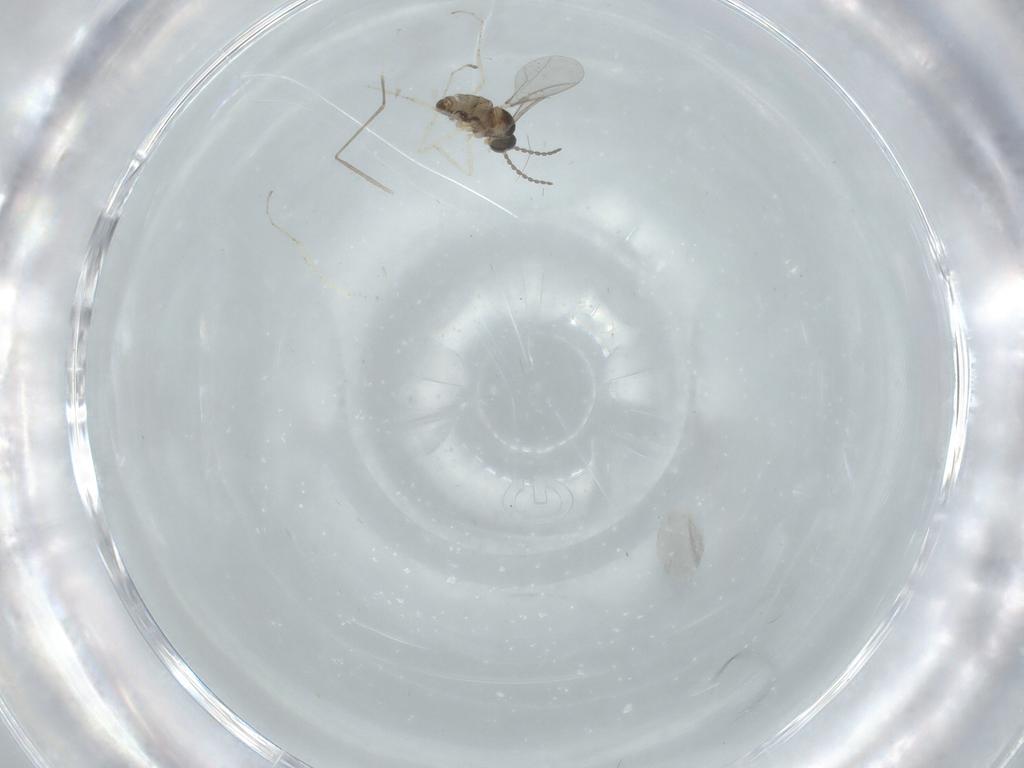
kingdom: Animalia
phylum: Arthropoda
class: Insecta
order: Diptera
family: Cecidomyiidae
